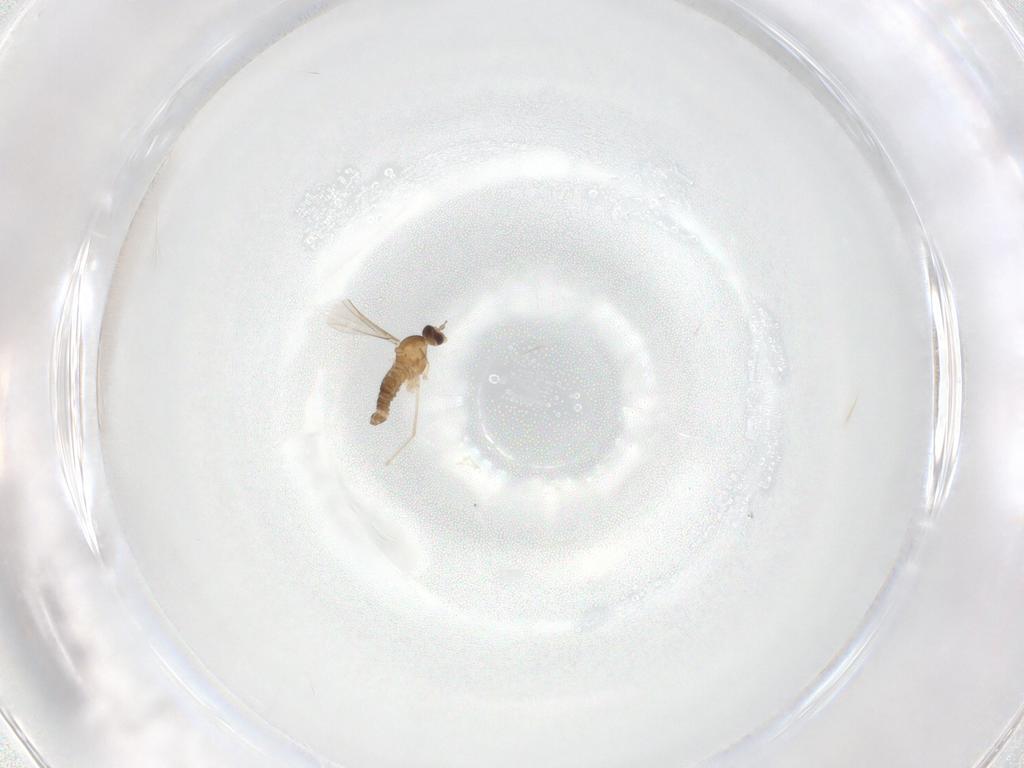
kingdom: Animalia
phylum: Arthropoda
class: Insecta
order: Diptera
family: Cecidomyiidae
